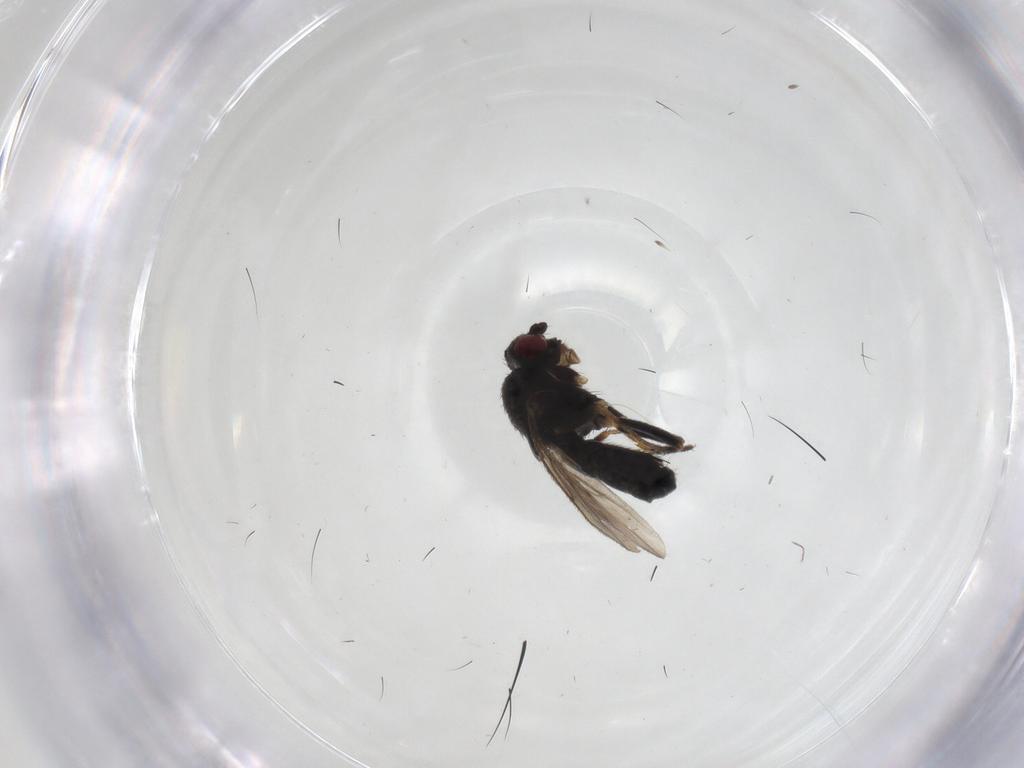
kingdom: Animalia
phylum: Arthropoda
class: Insecta
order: Diptera
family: Sphaeroceridae
